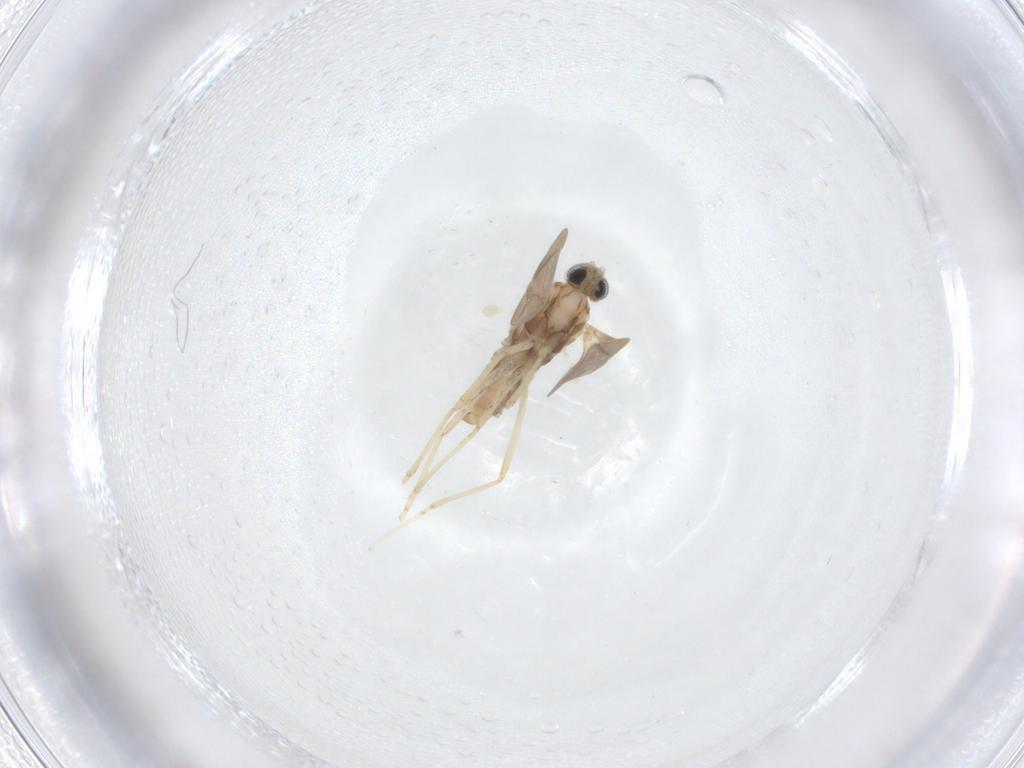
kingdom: Animalia
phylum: Arthropoda
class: Insecta
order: Diptera
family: Cecidomyiidae
